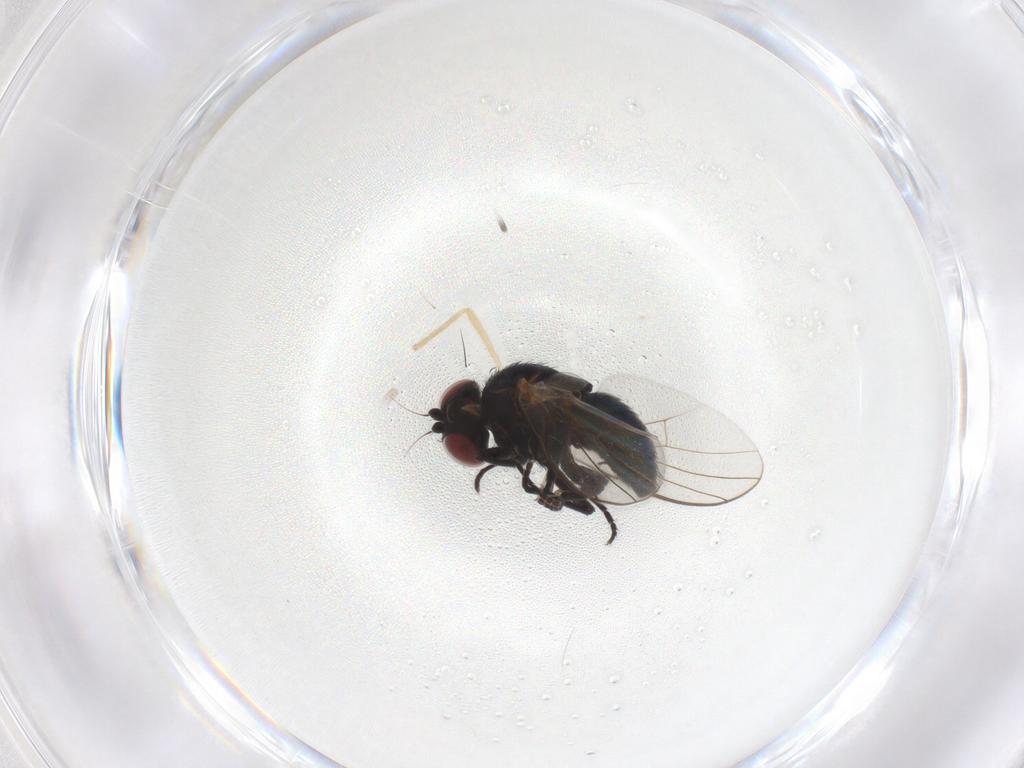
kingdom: Animalia
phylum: Arthropoda
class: Insecta
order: Diptera
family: Agromyzidae
